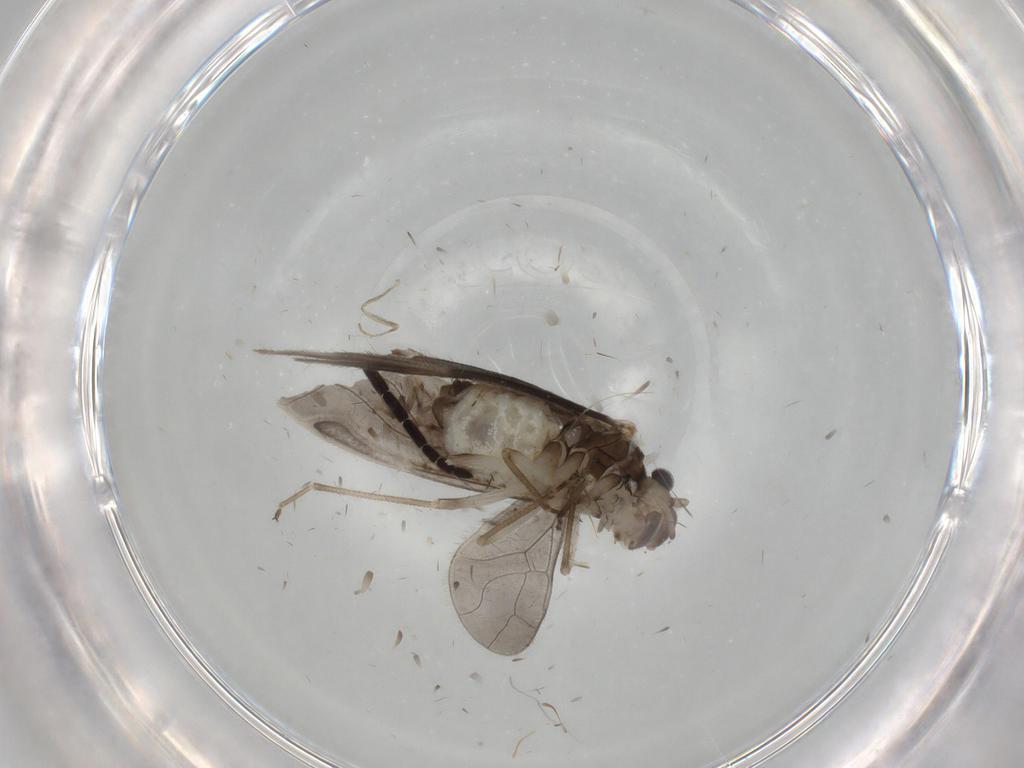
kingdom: Animalia
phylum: Arthropoda
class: Insecta
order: Psocodea
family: Caeciliusidae
